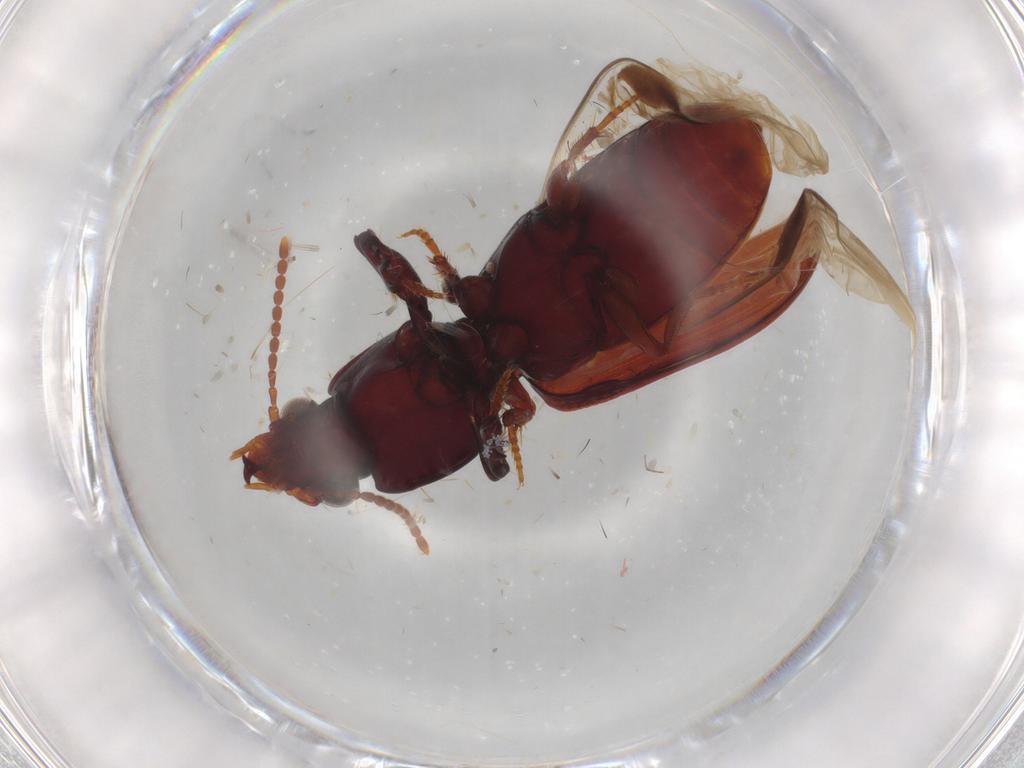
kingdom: Animalia
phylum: Arthropoda
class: Insecta
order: Coleoptera
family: Carabidae
